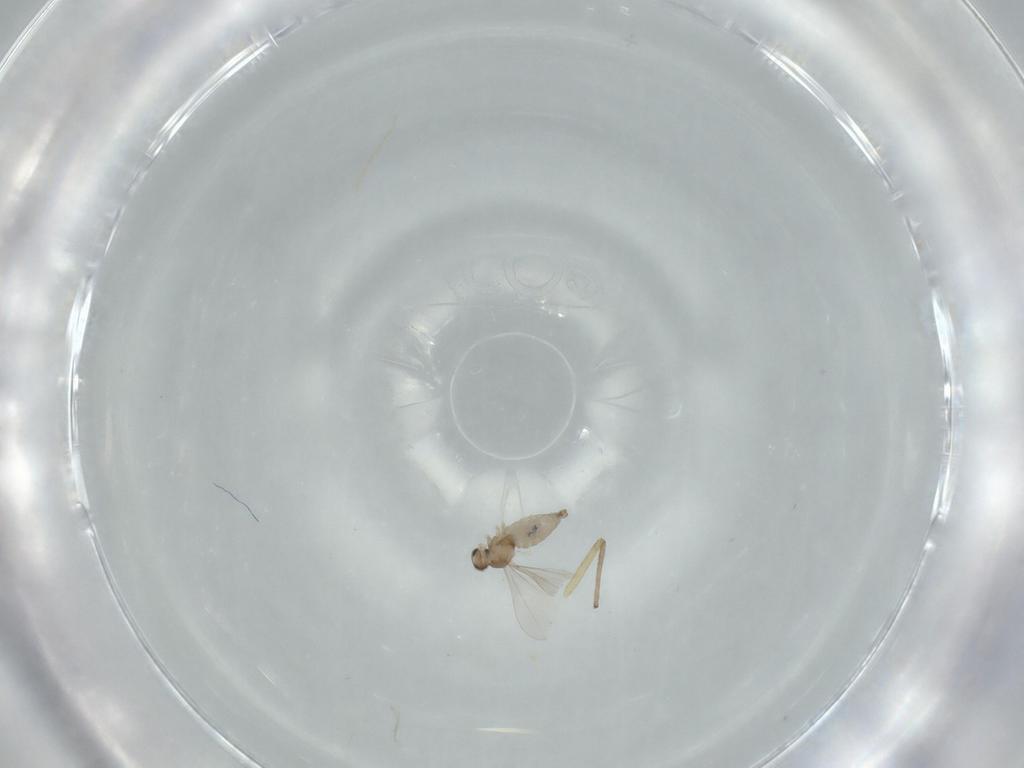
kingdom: Animalia
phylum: Arthropoda
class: Insecta
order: Diptera
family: Cecidomyiidae
